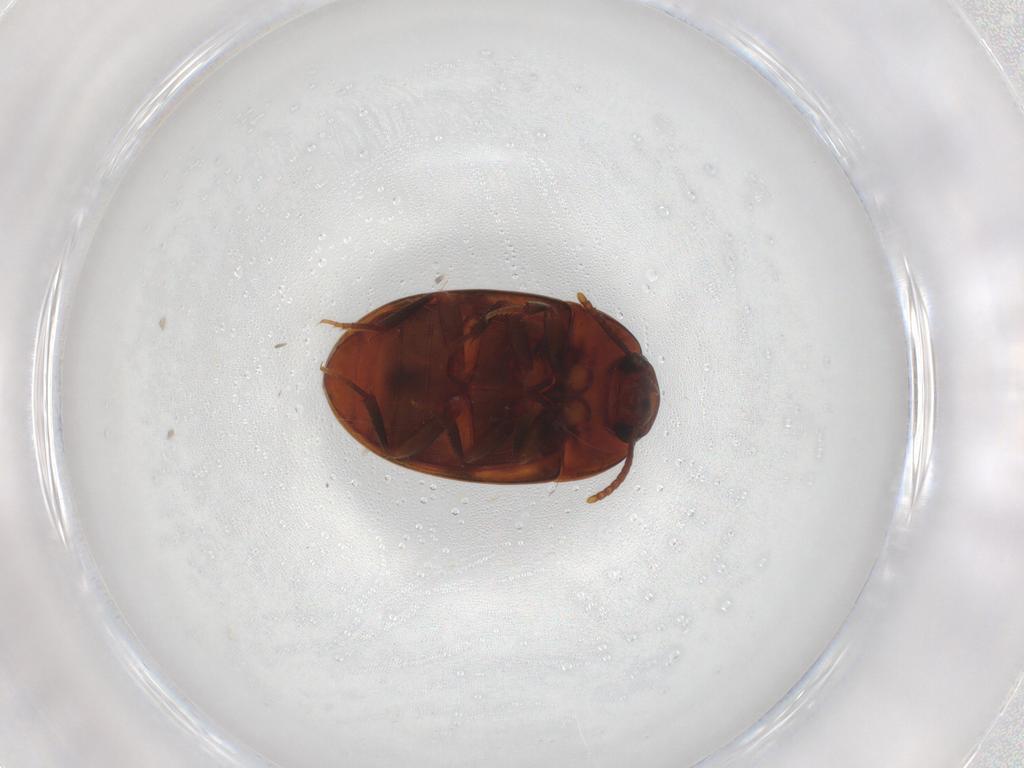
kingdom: Animalia
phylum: Arthropoda
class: Insecta
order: Coleoptera
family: Tenebrionidae
